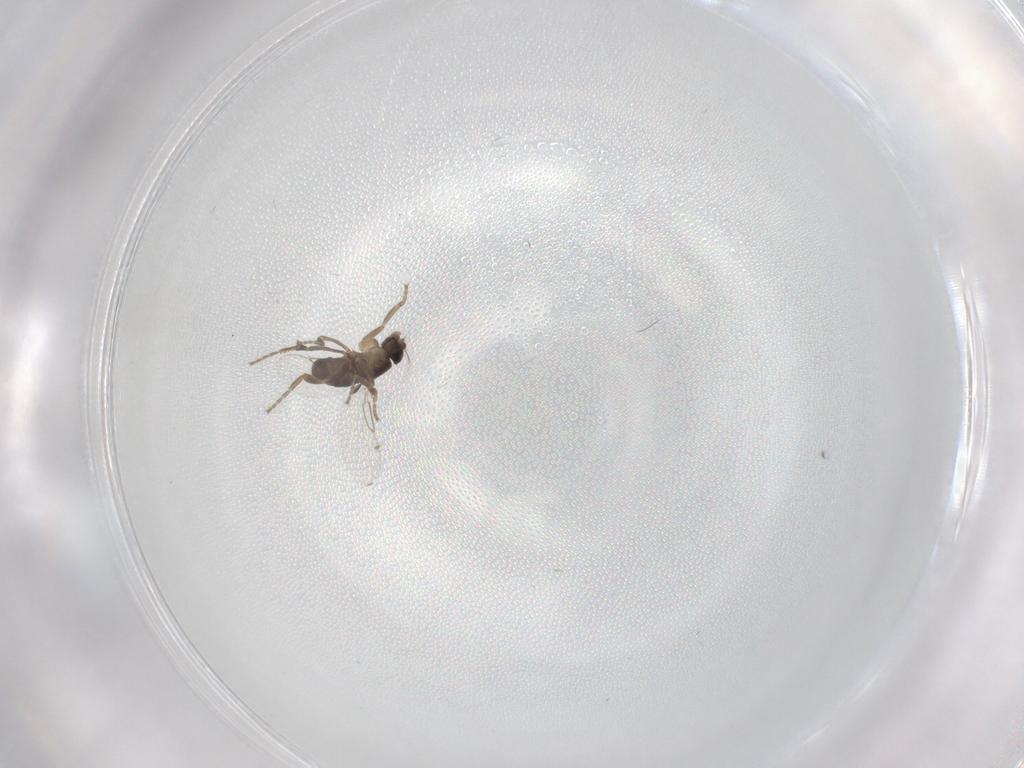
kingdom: Animalia
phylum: Arthropoda
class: Insecta
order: Diptera
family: Phoridae
